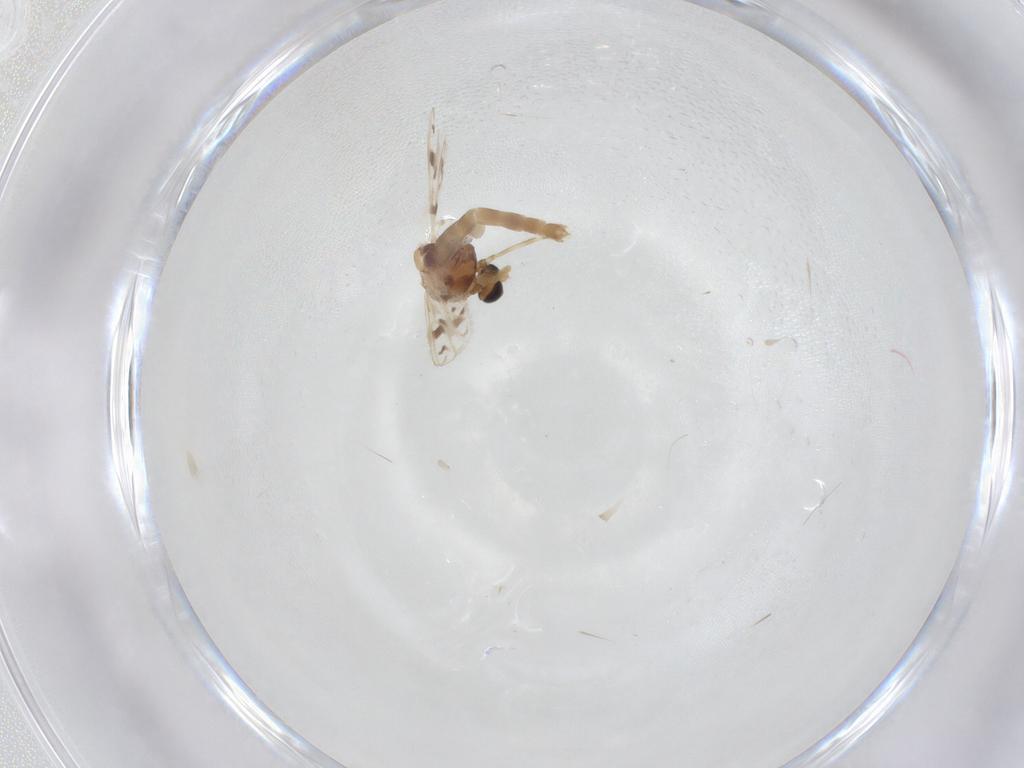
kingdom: Animalia
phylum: Arthropoda
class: Insecta
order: Diptera
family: Chironomidae
